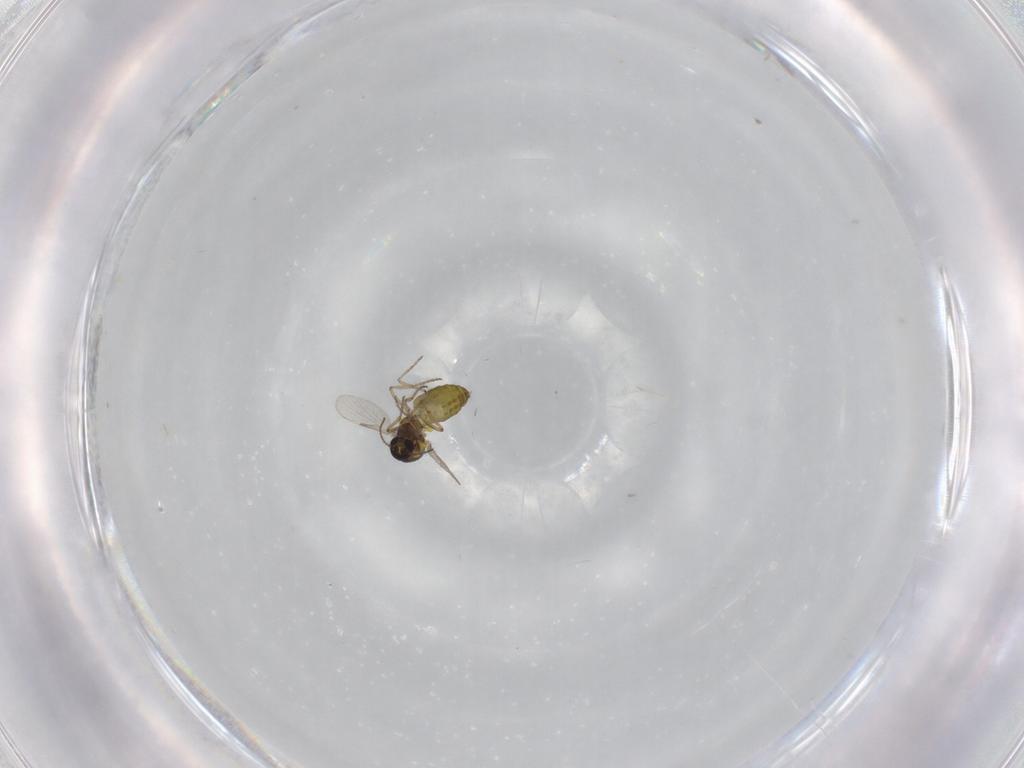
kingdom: Animalia
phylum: Arthropoda
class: Insecta
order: Diptera
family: Ceratopogonidae
